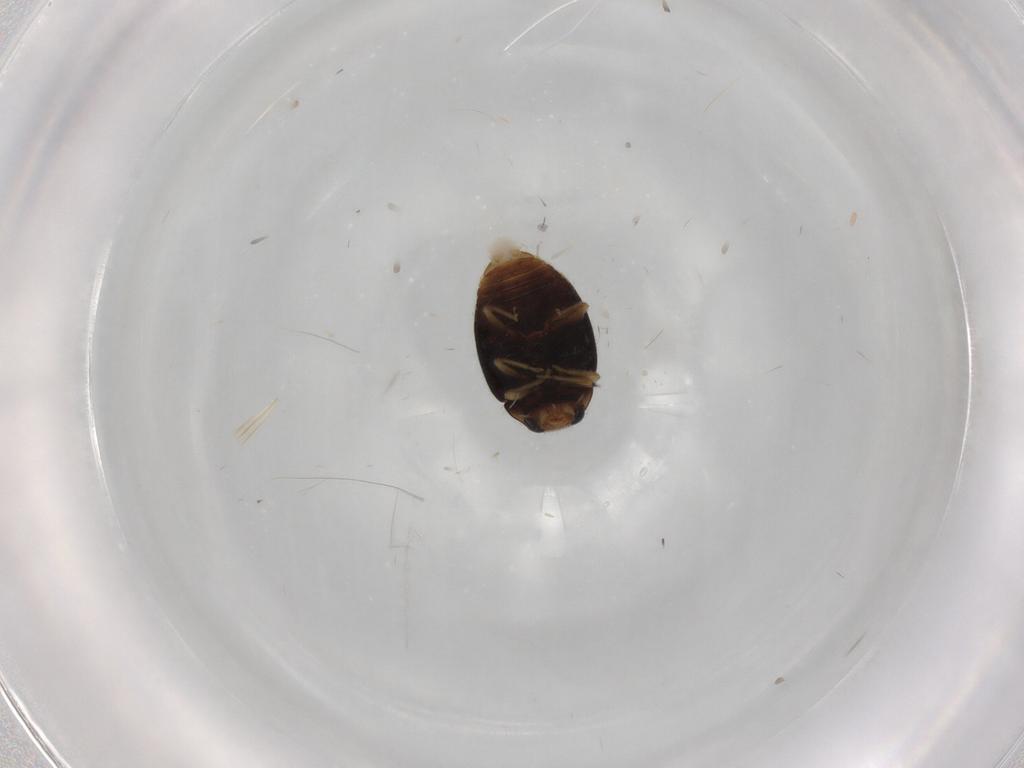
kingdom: Animalia
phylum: Arthropoda
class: Insecta
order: Coleoptera
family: Coccinellidae
